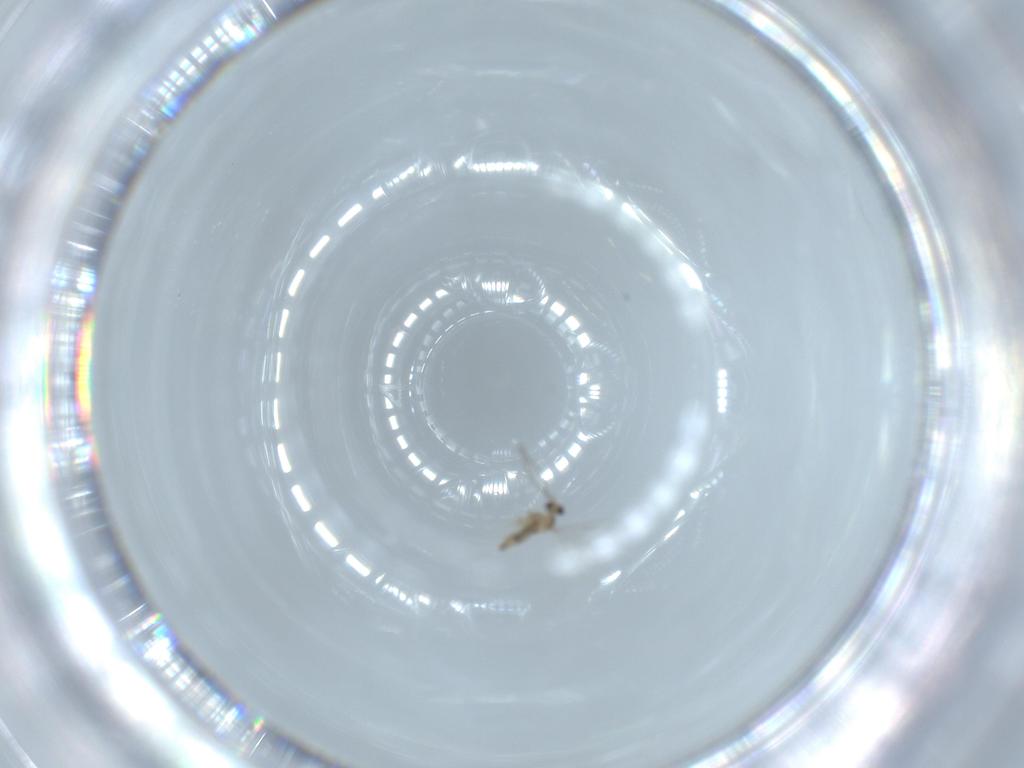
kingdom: Animalia
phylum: Arthropoda
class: Insecta
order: Diptera
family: Cecidomyiidae
